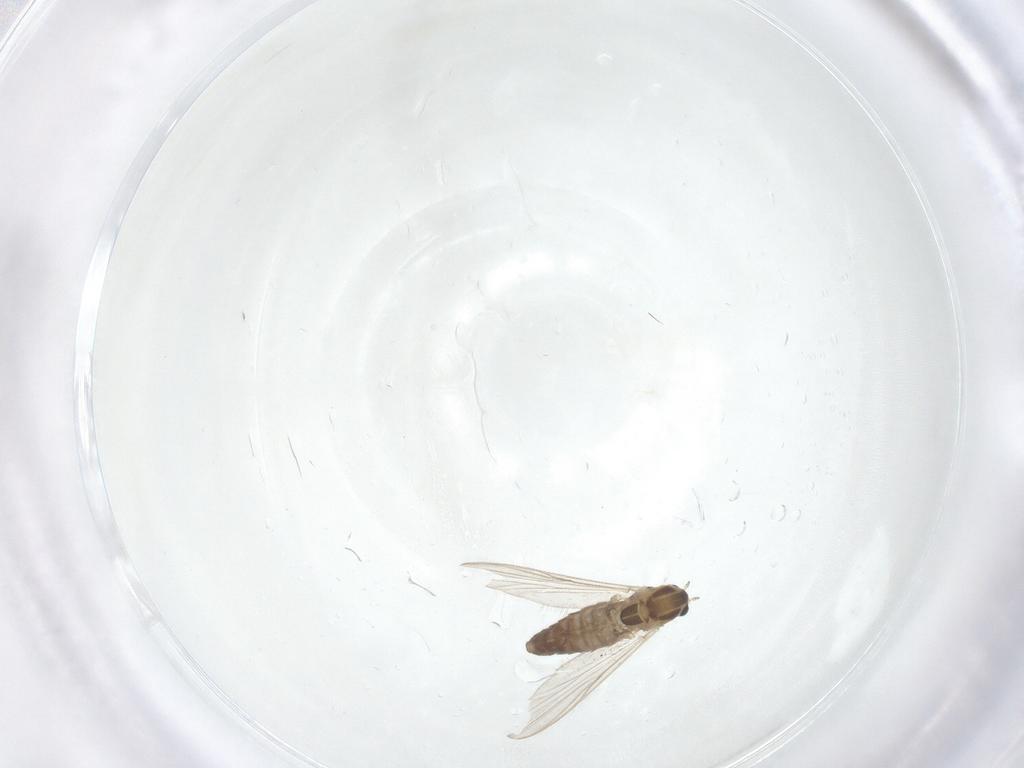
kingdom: Animalia
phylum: Arthropoda
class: Insecta
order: Diptera
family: Chironomidae
